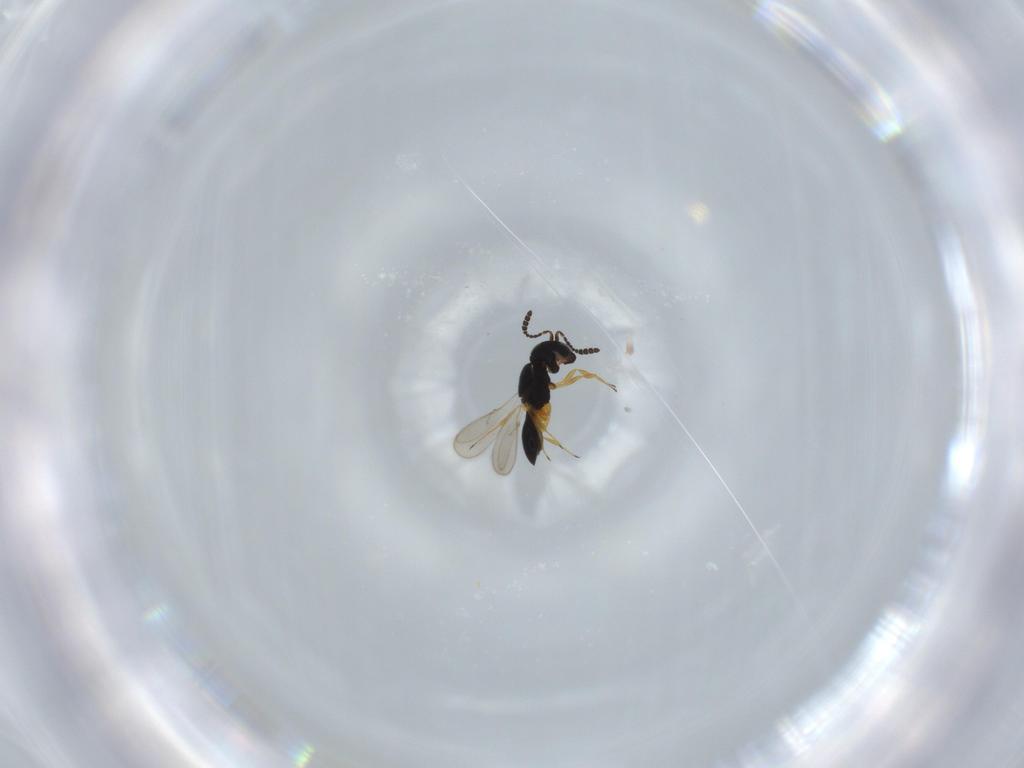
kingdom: Animalia
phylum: Arthropoda
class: Insecta
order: Hymenoptera
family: Scelionidae
